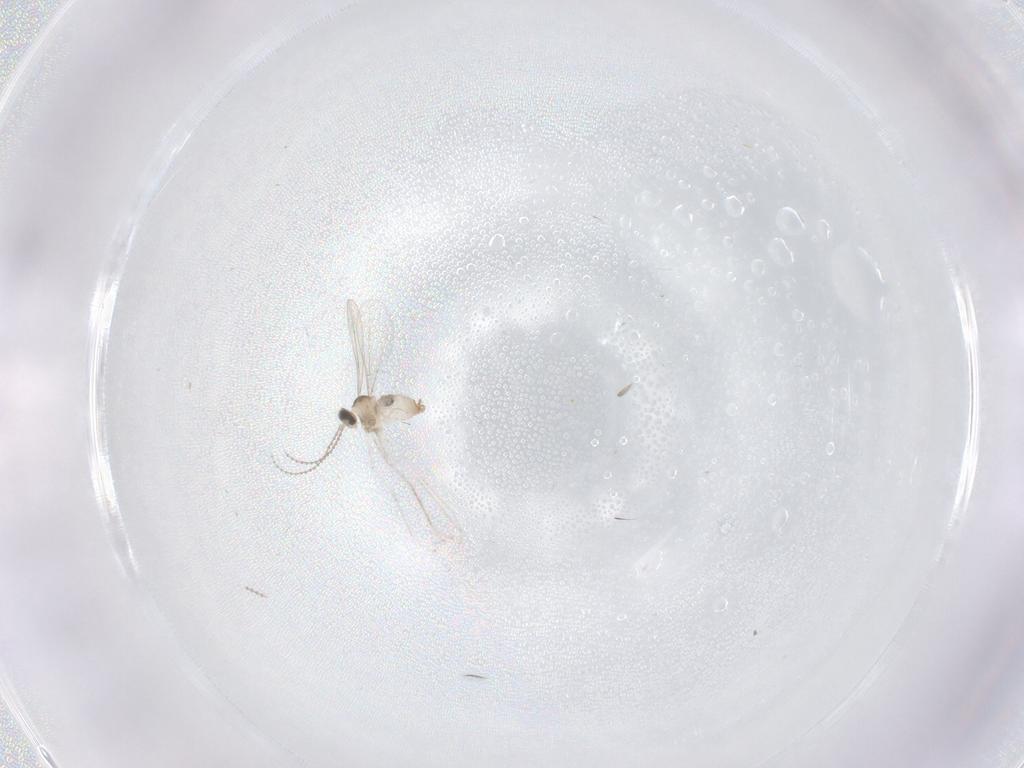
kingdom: Animalia
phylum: Arthropoda
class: Insecta
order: Diptera
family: Cecidomyiidae
